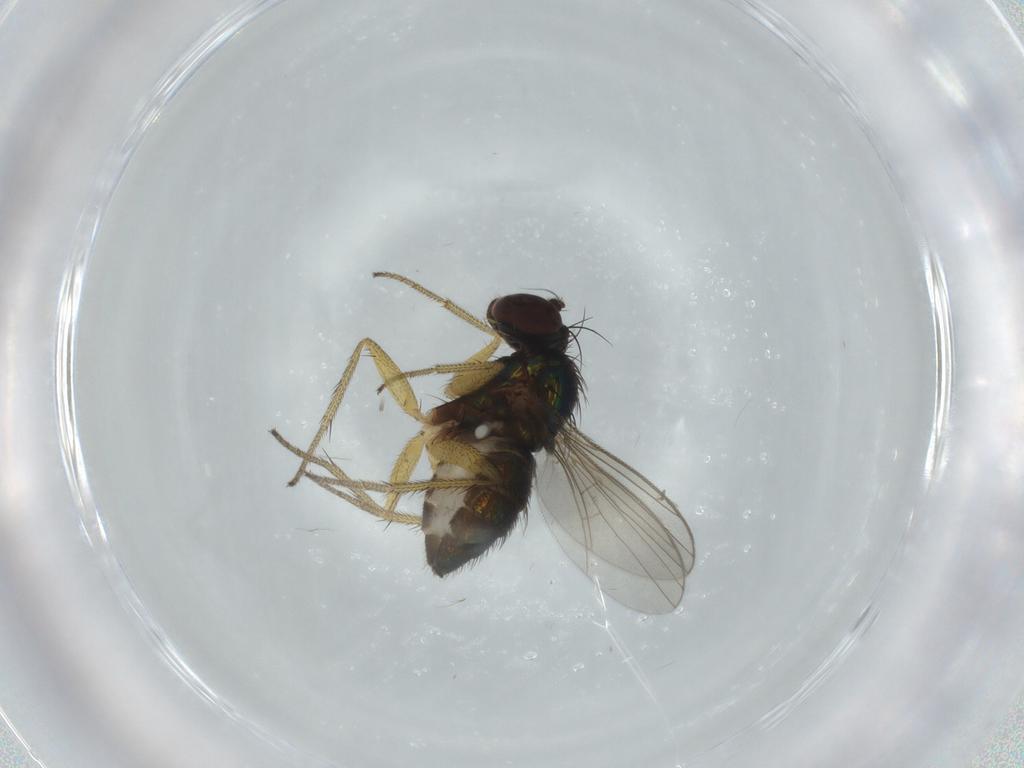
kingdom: Animalia
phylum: Arthropoda
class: Insecta
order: Diptera
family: Dolichopodidae
